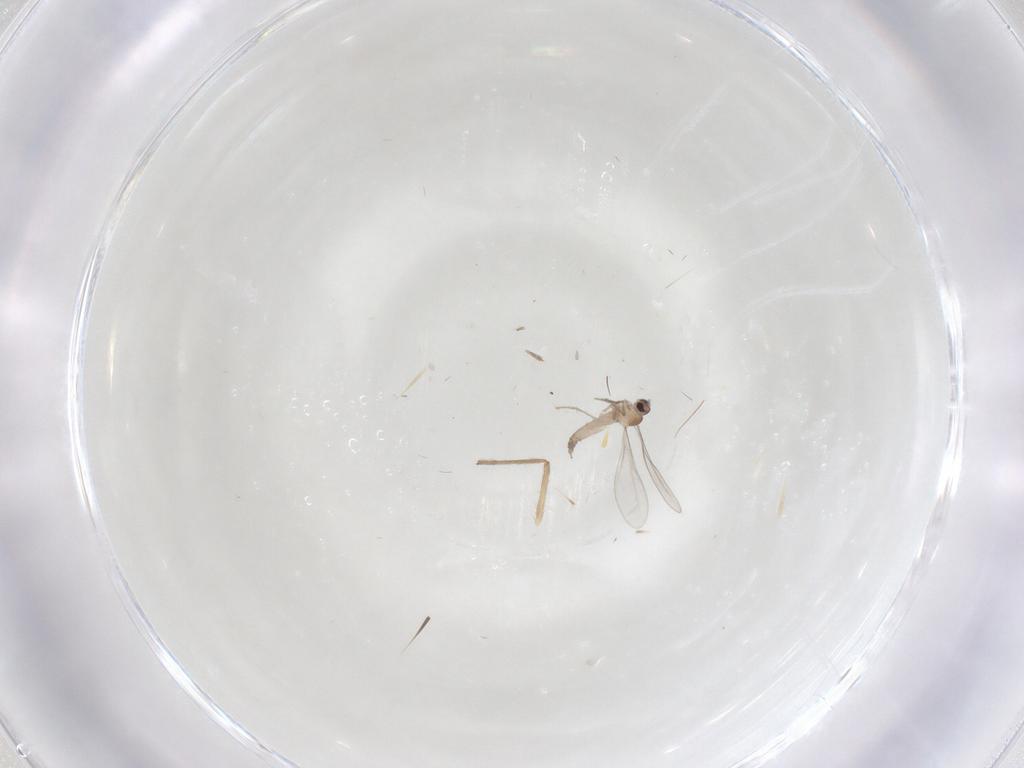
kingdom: Animalia
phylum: Arthropoda
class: Insecta
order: Diptera
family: Cecidomyiidae
